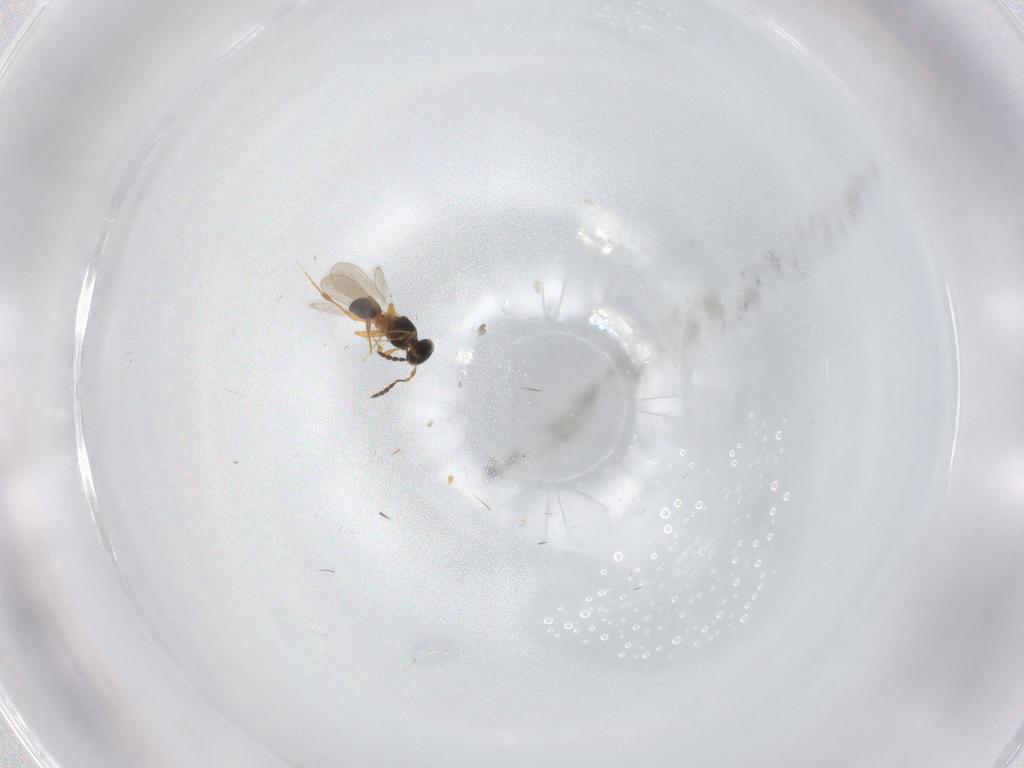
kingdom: Animalia
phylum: Arthropoda
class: Insecta
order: Hymenoptera
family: Platygastridae
